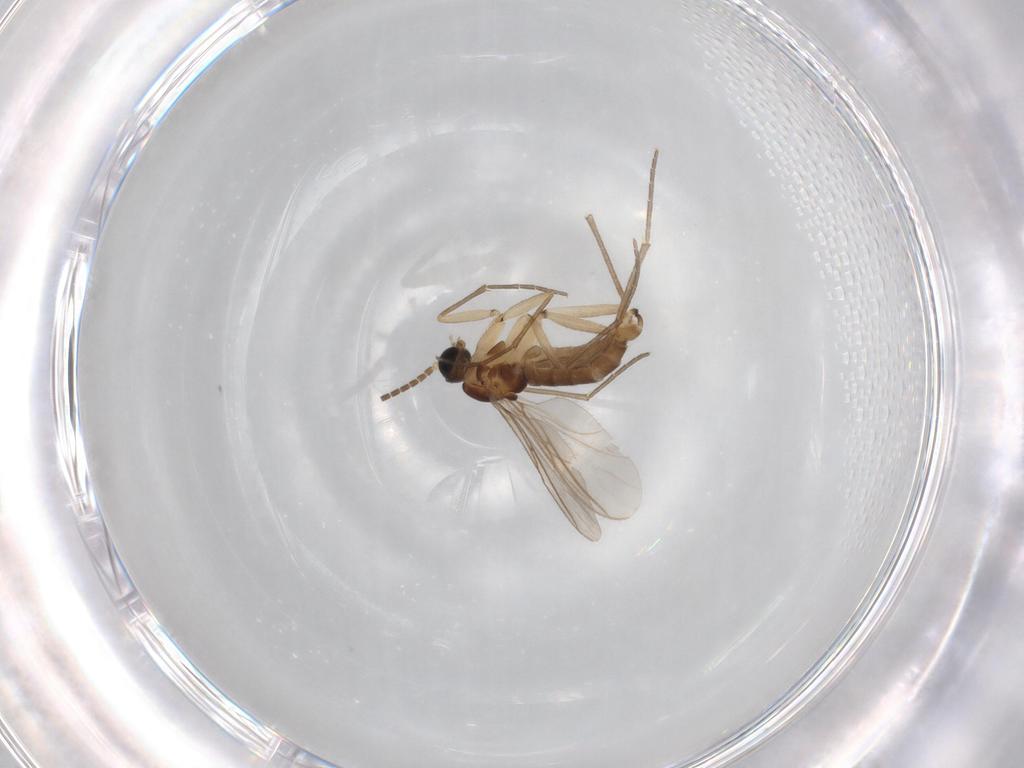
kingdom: Animalia
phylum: Arthropoda
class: Insecta
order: Diptera
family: Sciaridae
